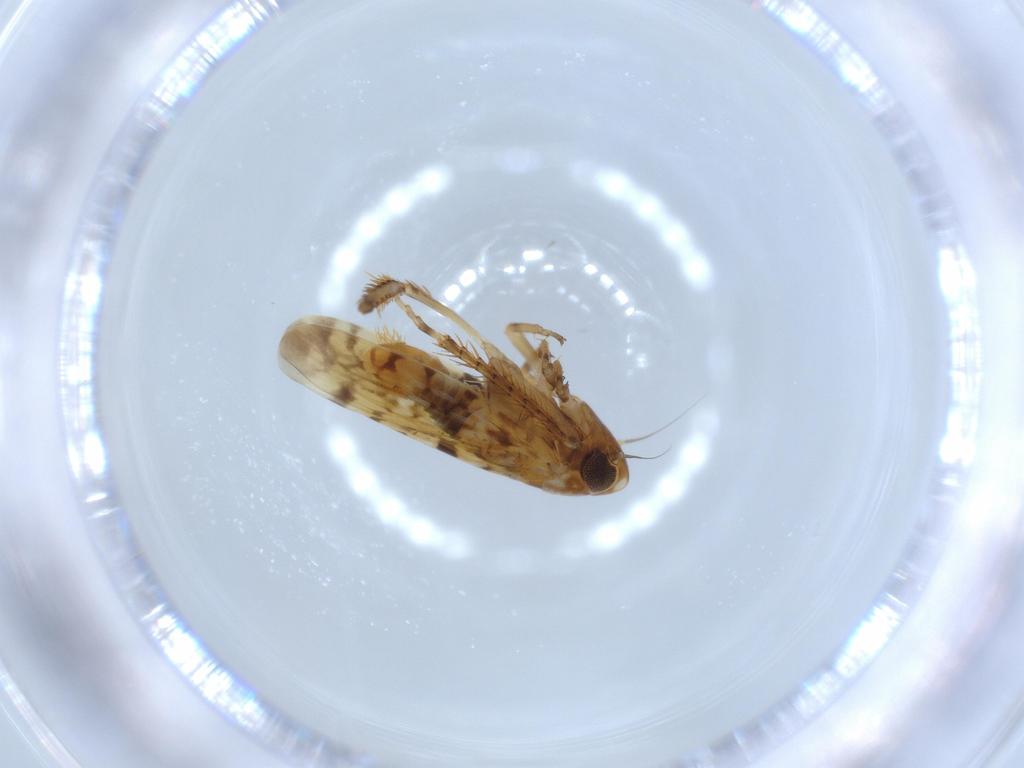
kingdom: Animalia
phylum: Arthropoda
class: Insecta
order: Hemiptera
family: Cicadellidae
